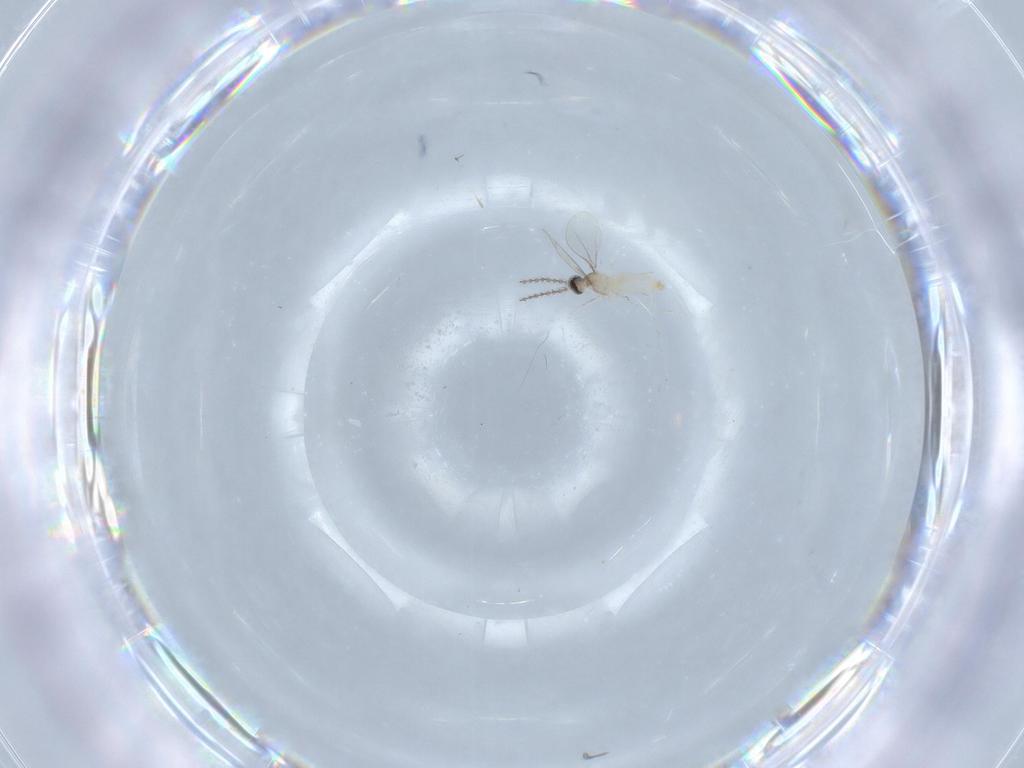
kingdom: Animalia
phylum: Arthropoda
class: Insecta
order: Diptera
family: Cecidomyiidae
